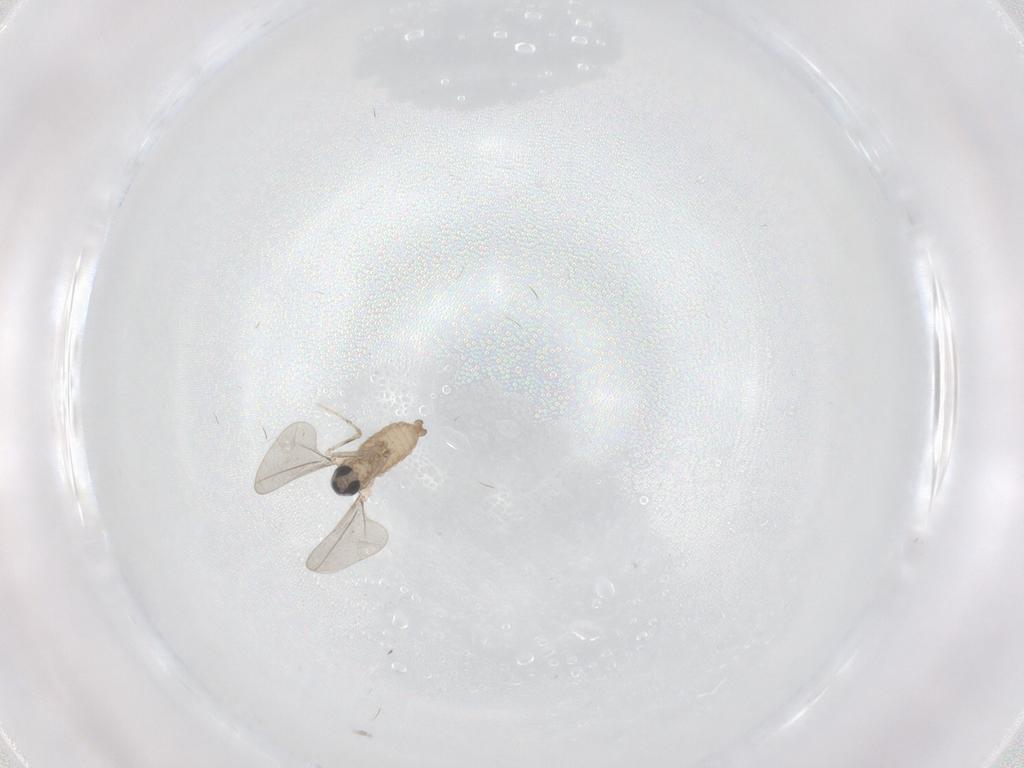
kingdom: Animalia
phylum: Arthropoda
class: Insecta
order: Diptera
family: Cecidomyiidae
